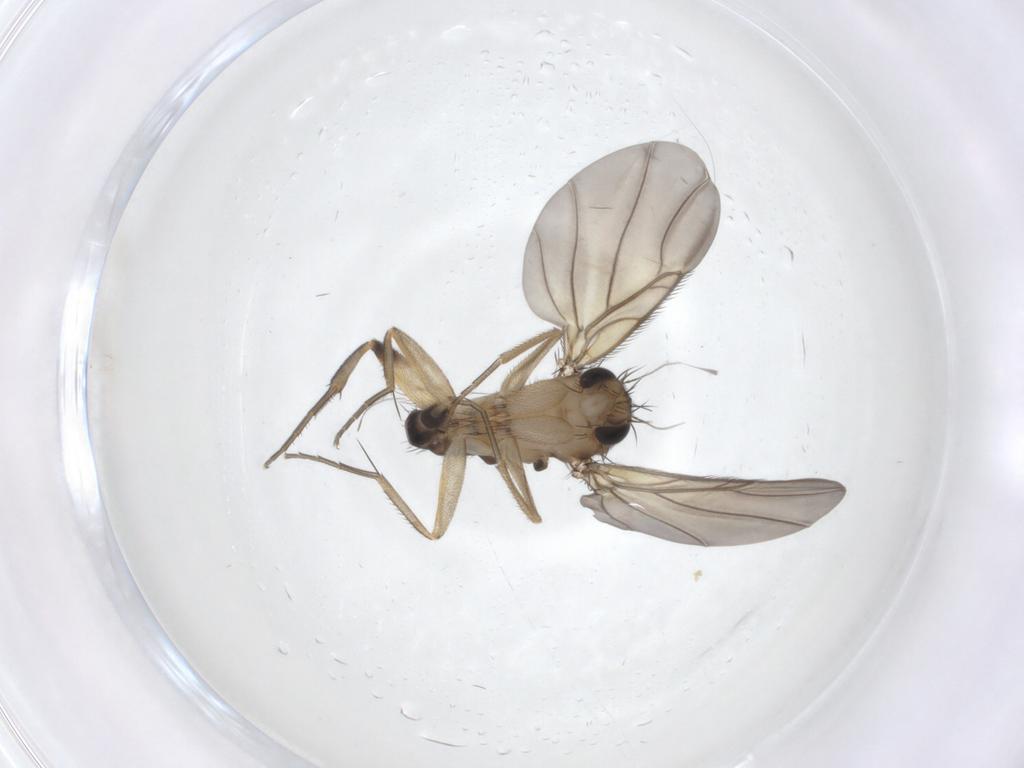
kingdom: Animalia
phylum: Arthropoda
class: Insecta
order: Diptera
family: Phoridae
